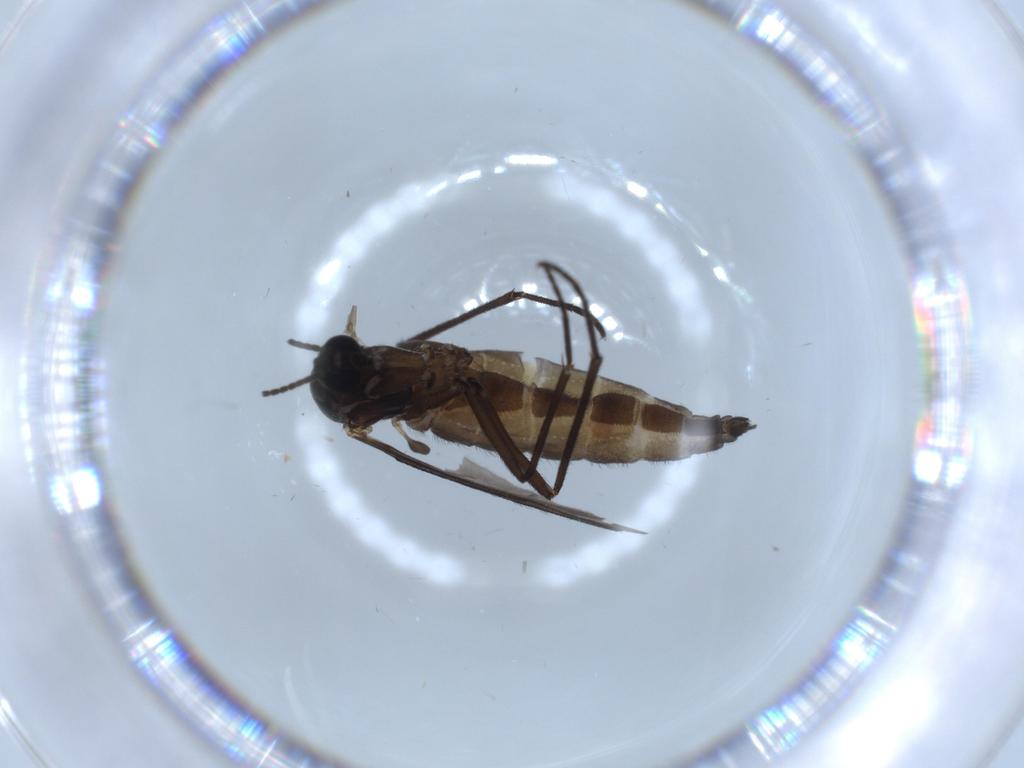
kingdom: Animalia
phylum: Arthropoda
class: Insecta
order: Diptera
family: Sciaridae
